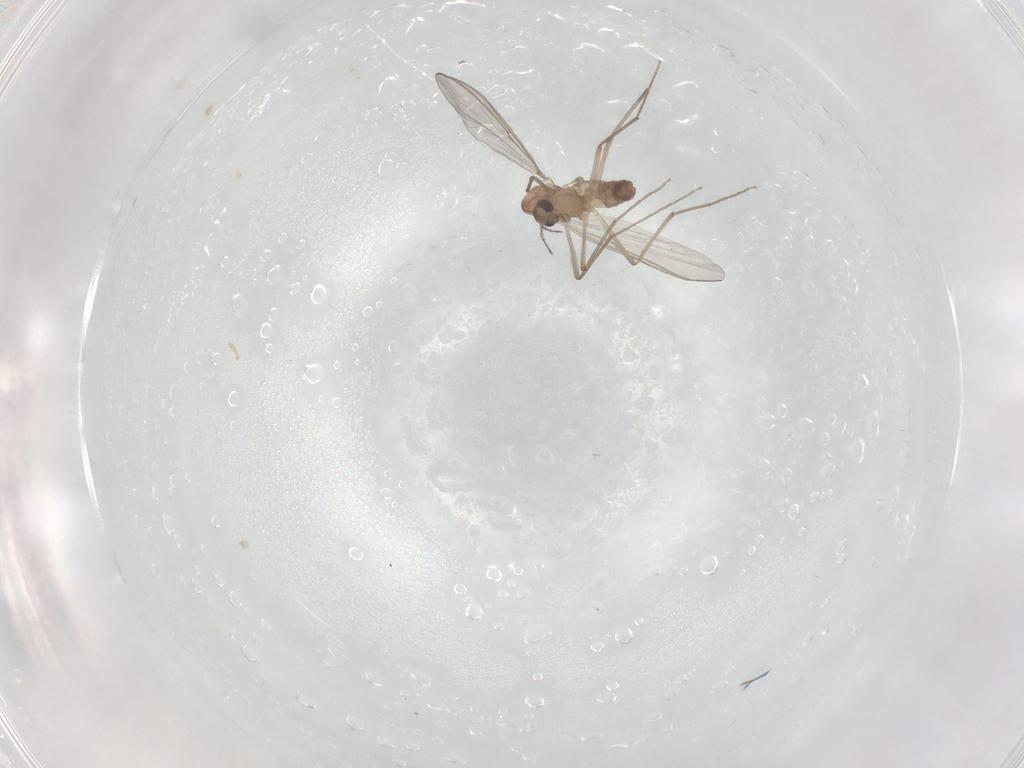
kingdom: Animalia
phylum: Arthropoda
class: Insecta
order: Diptera
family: Chironomidae
